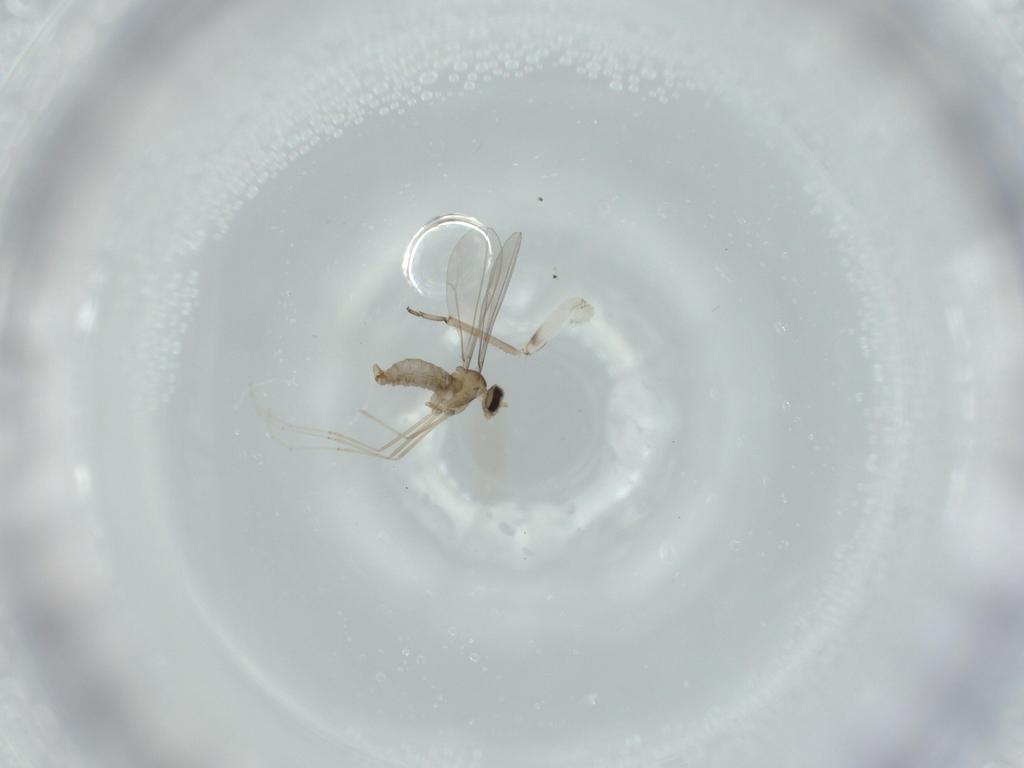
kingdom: Animalia
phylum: Arthropoda
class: Insecta
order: Diptera
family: Cecidomyiidae
